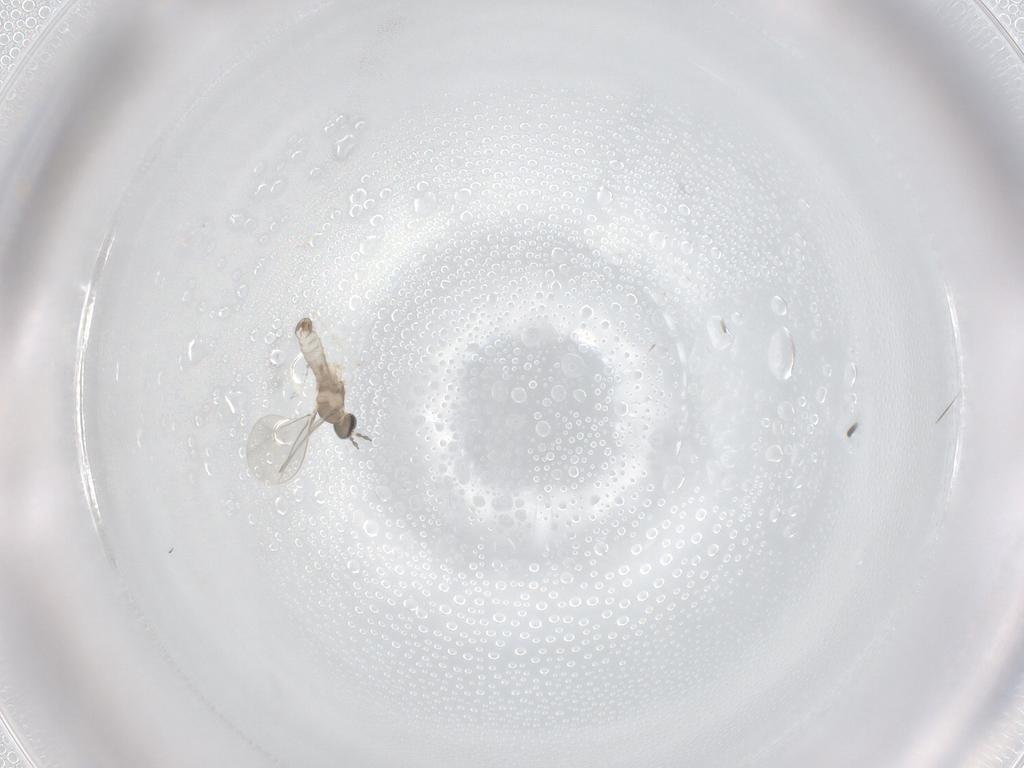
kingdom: Animalia
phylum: Arthropoda
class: Insecta
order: Diptera
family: Cecidomyiidae
